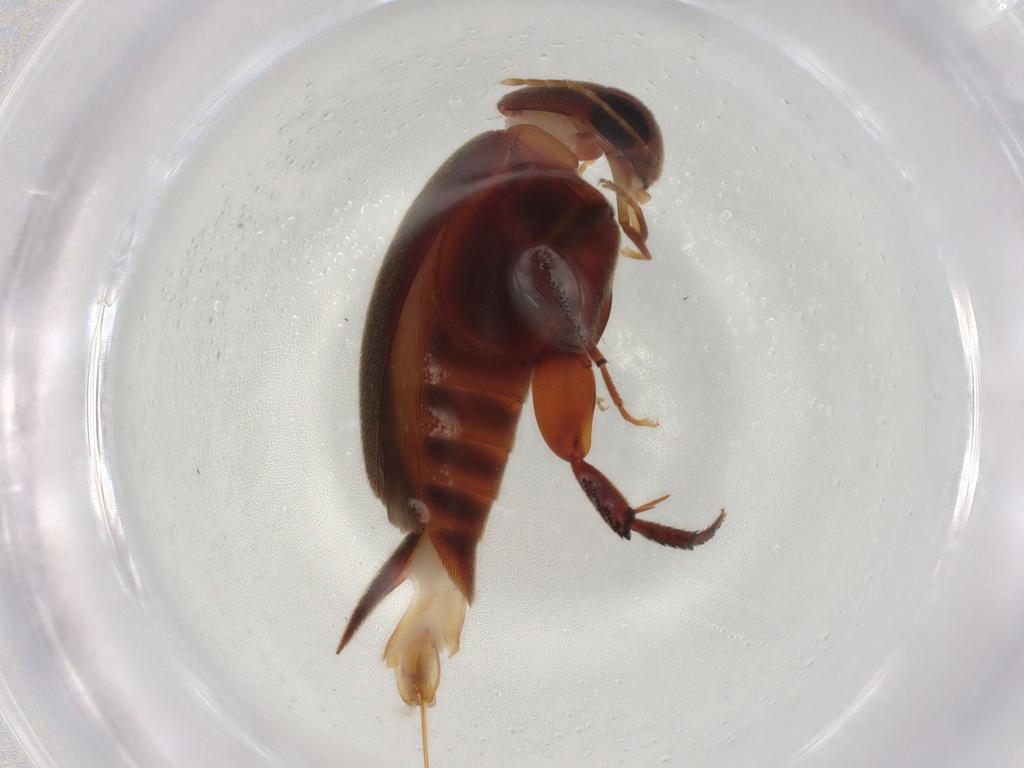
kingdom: Animalia
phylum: Arthropoda
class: Insecta
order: Coleoptera
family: Mordellidae
